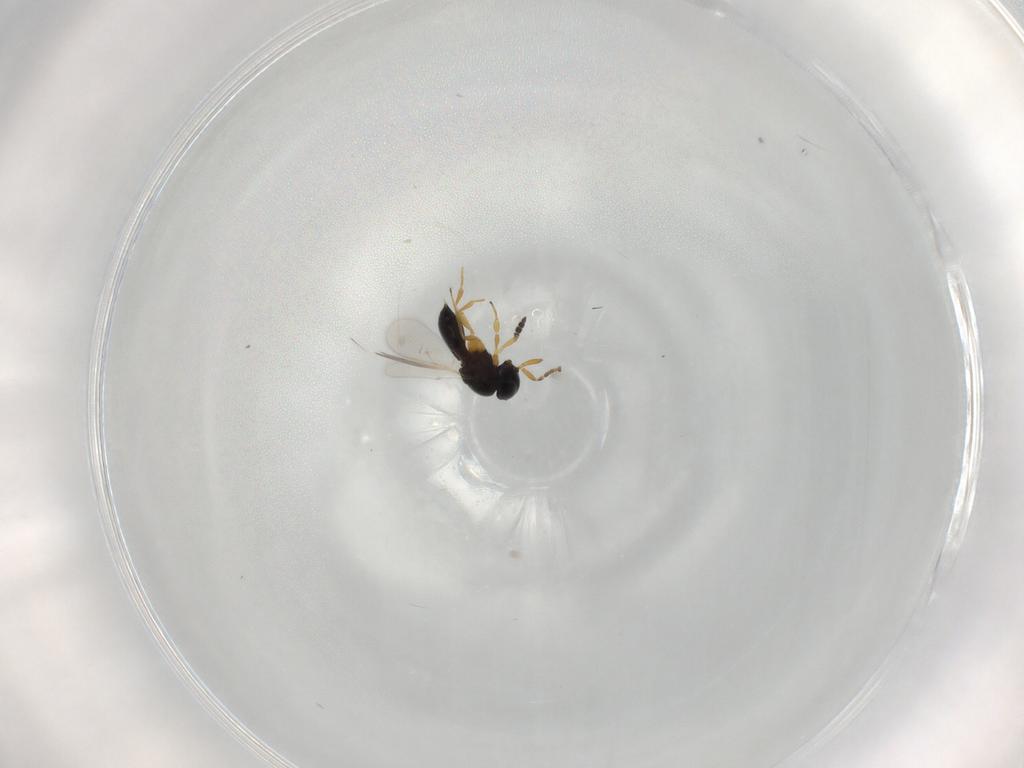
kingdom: Animalia
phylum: Arthropoda
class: Insecta
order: Hymenoptera
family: Scelionidae
